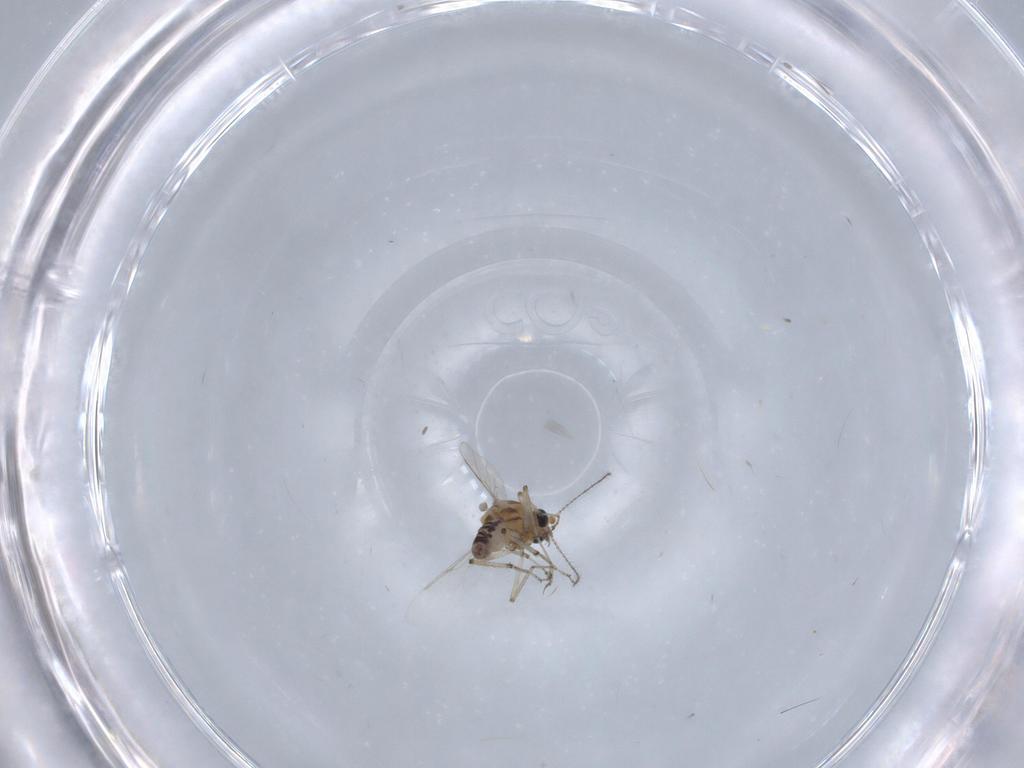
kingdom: Animalia
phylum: Arthropoda
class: Insecta
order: Diptera
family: Ceratopogonidae
